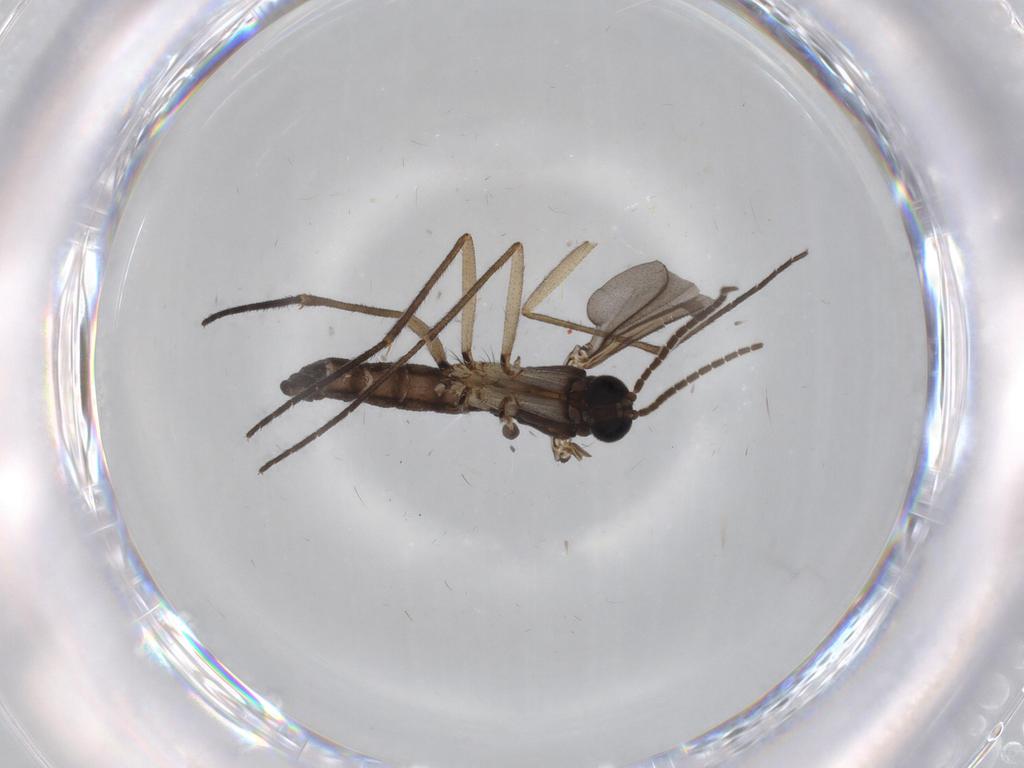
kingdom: Animalia
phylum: Arthropoda
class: Insecta
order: Diptera
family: Sciaridae
